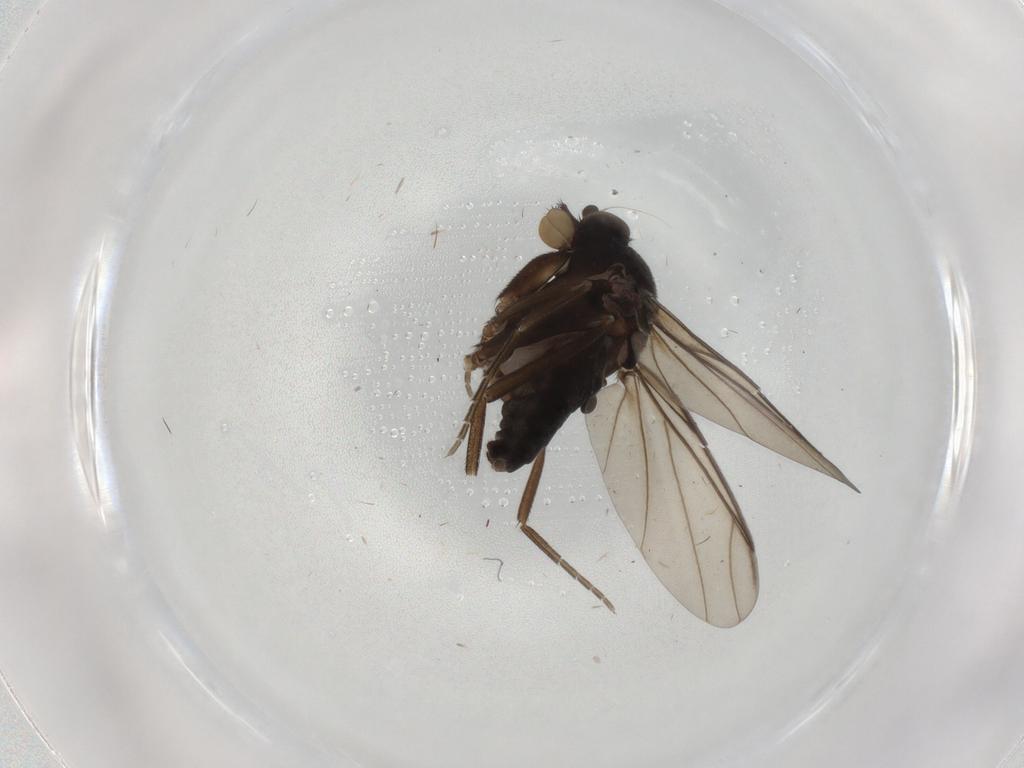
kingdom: Animalia
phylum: Arthropoda
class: Insecta
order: Diptera
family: Phoridae
